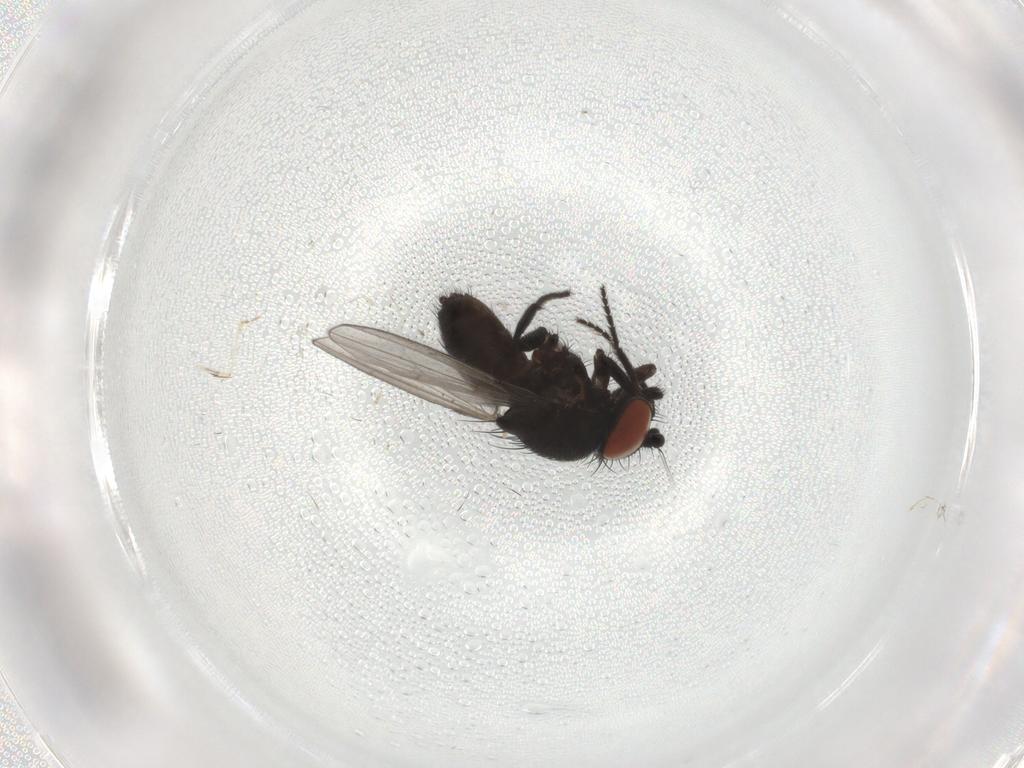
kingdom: Animalia
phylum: Arthropoda
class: Insecta
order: Diptera
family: Milichiidae
